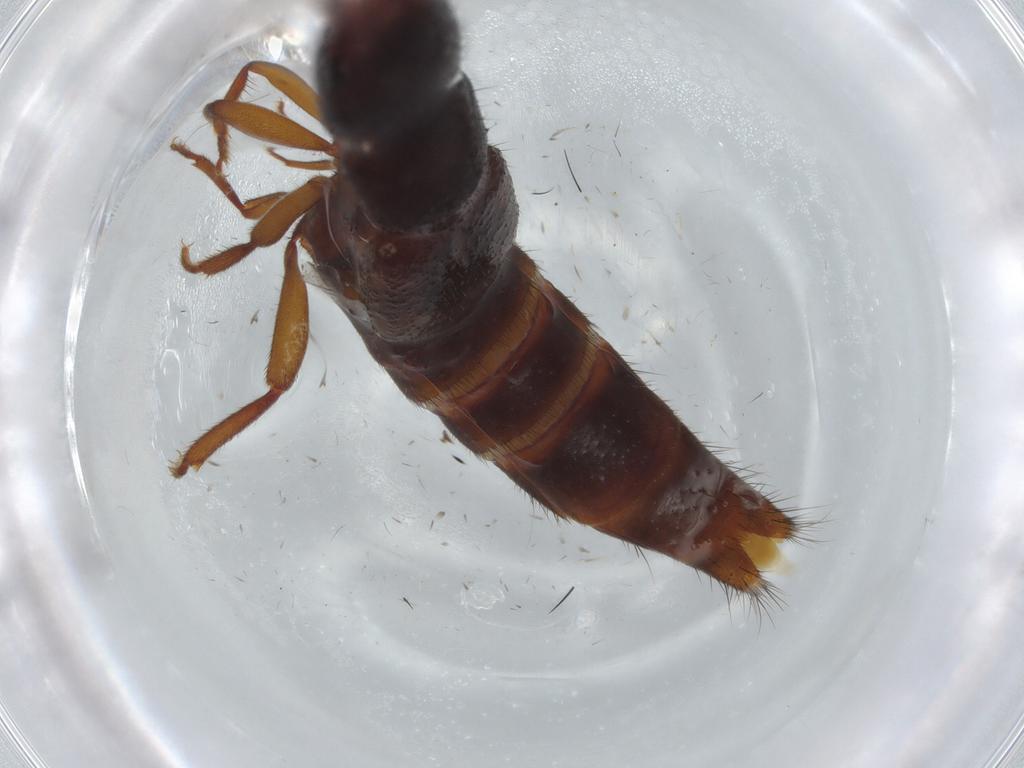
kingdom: Animalia
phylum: Arthropoda
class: Insecta
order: Coleoptera
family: Staphylinidae
